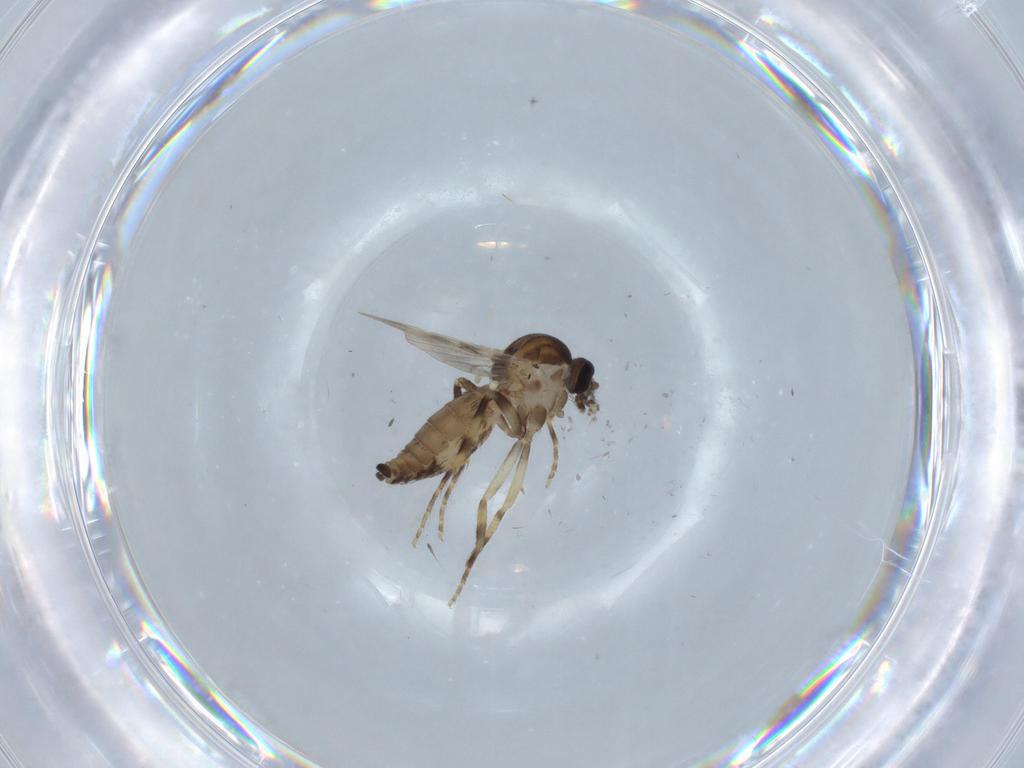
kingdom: Animalia
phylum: Arthropoda
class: Insecta
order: Diptera
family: Ceratopogonidae
